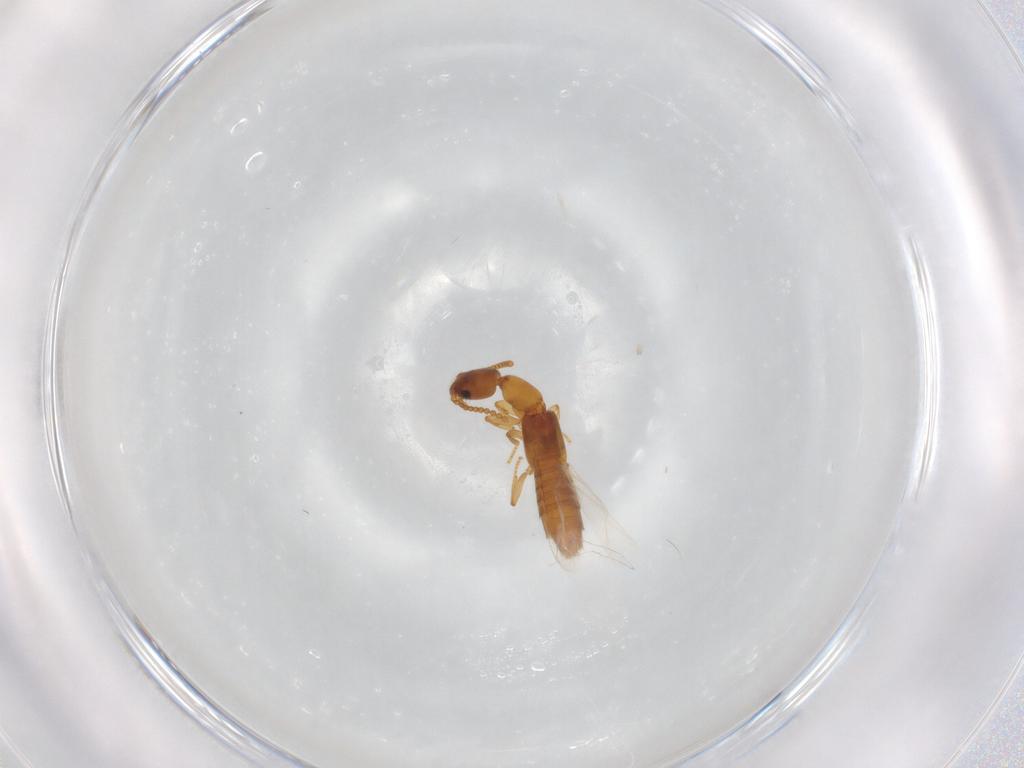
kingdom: Animalia
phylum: Arthropoda
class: Insecta
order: Coleoptera
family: Staphylinidae
